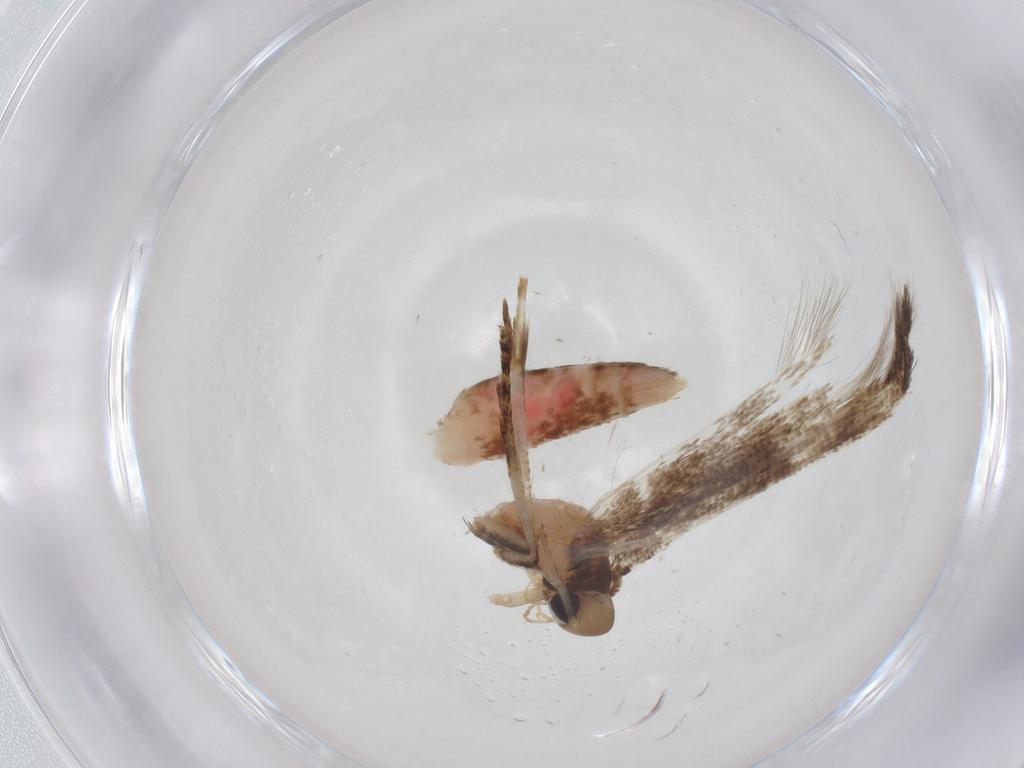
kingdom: Animalia
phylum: Arthropoda
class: Insecta
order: Lepidoptera
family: Cosmopterigidae
